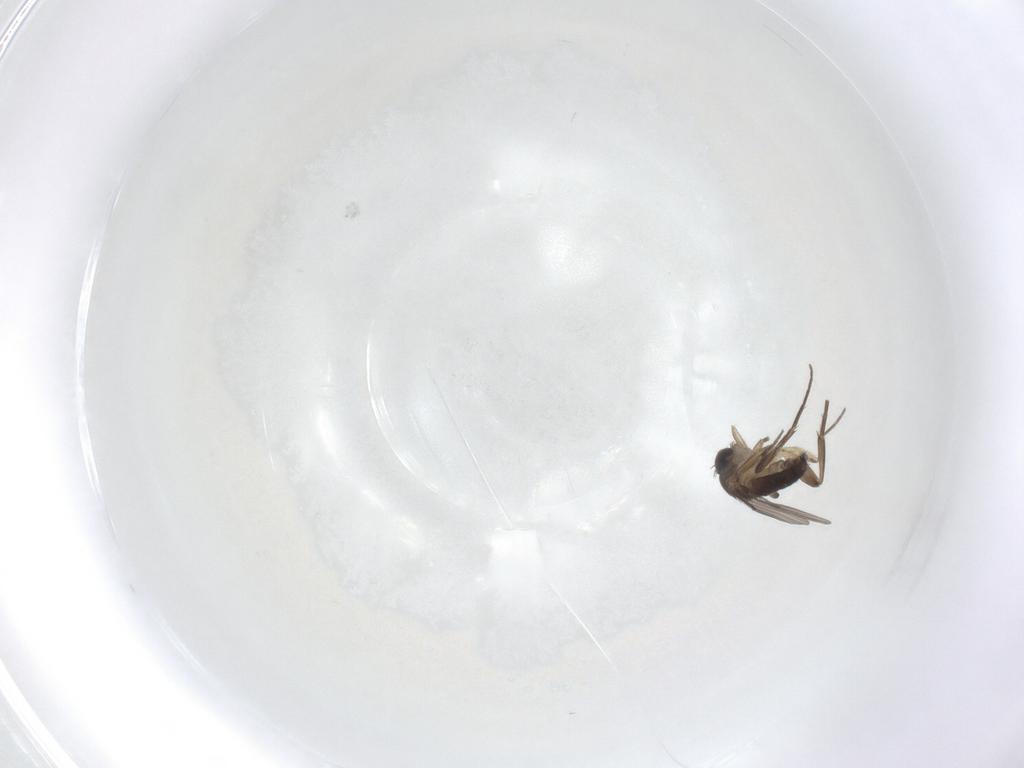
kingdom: Animalia
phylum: Arthropoda
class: Insecta
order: Diptera
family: Phoridae
